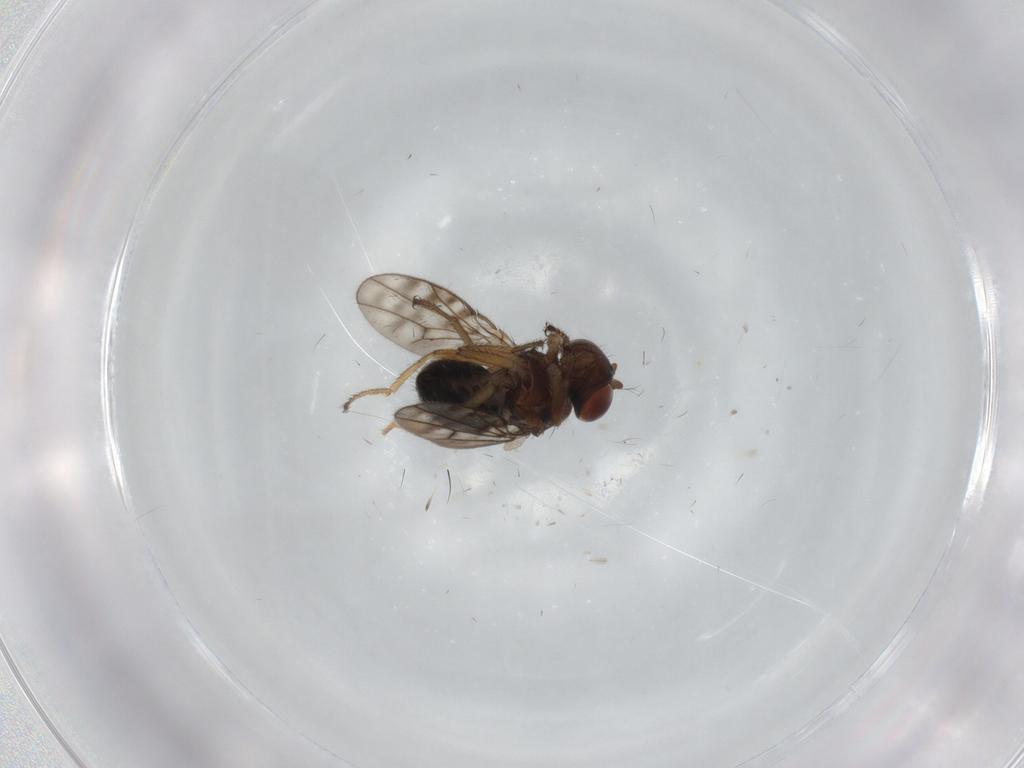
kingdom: Animalia
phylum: Arthropoda
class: Insecta
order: Diptera
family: Ephydridae
